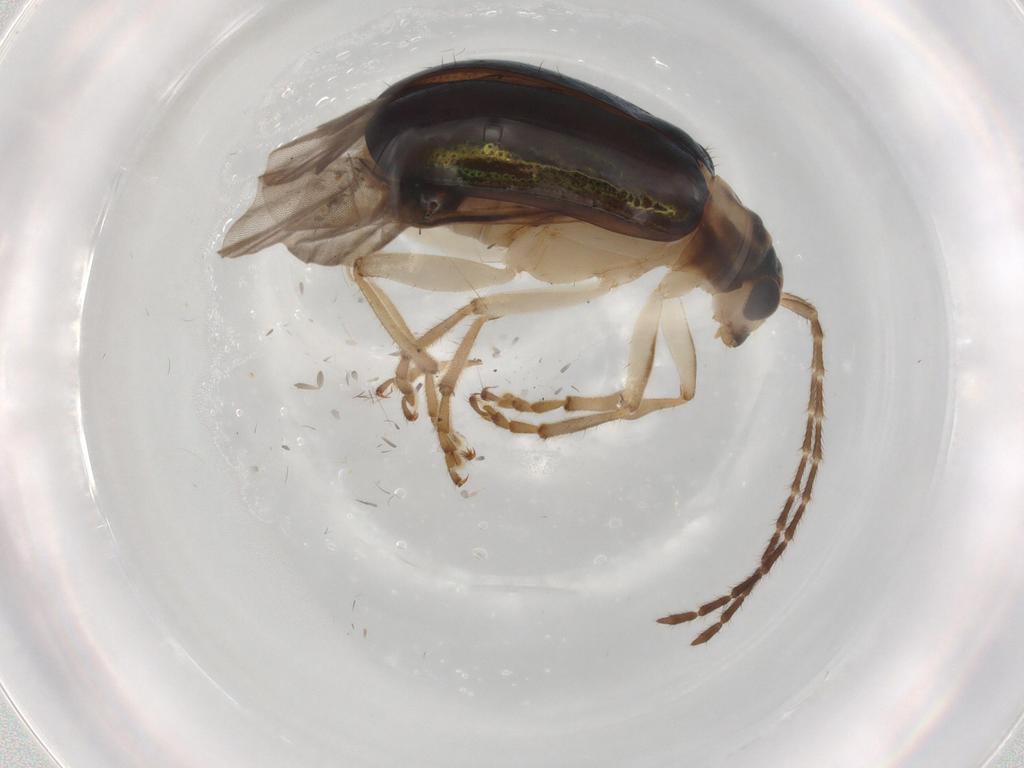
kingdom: Animalia
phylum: Arthropoda
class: Insecta
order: Coleoptera
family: Chrysomelidae
